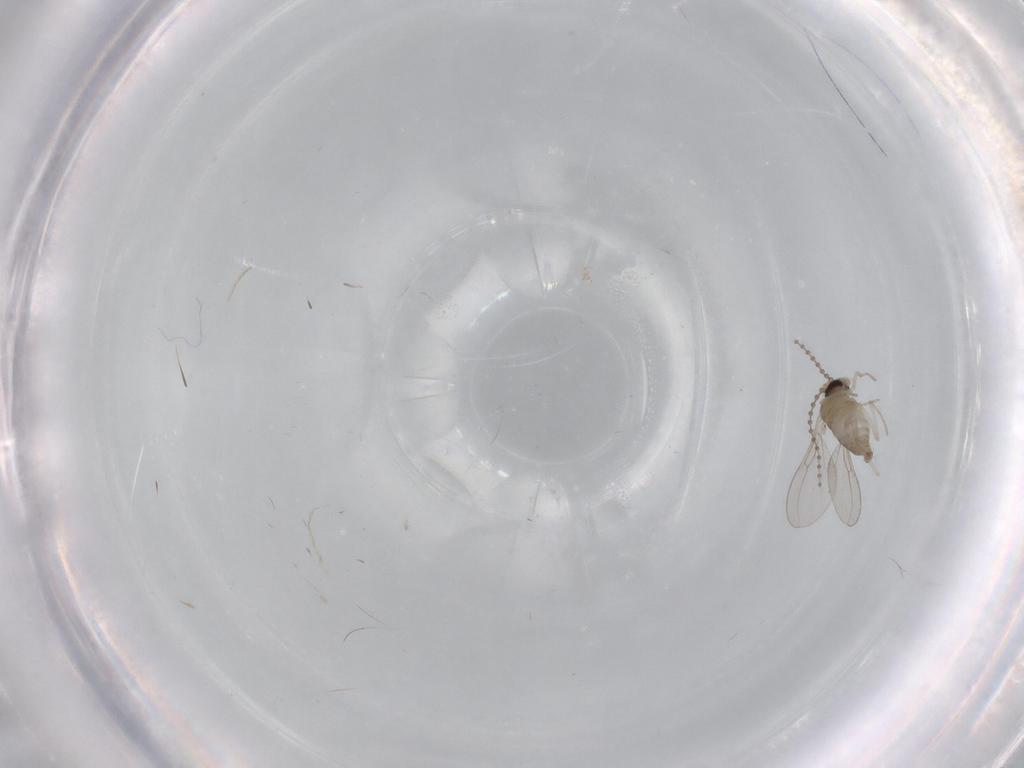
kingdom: Animalia
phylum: Arthropoda
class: Insecta
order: Diptera
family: Cecidomyiidae
